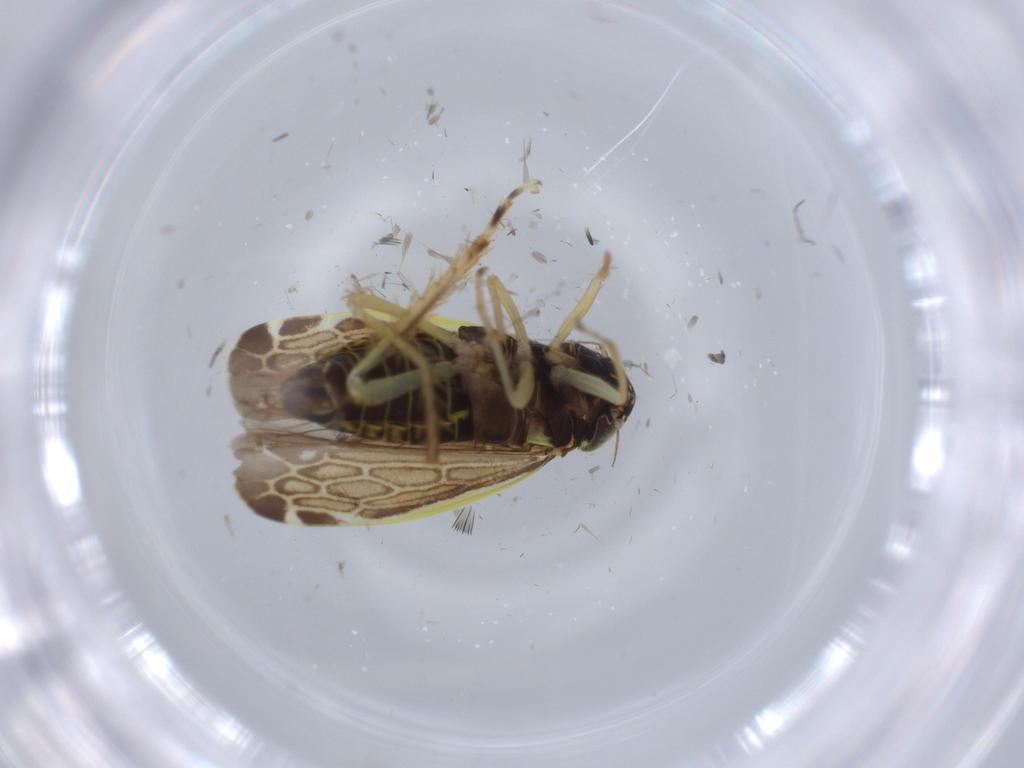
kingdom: Animalia
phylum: Arthropoda
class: Insecta
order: Hemiptera
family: Cicadellidae
